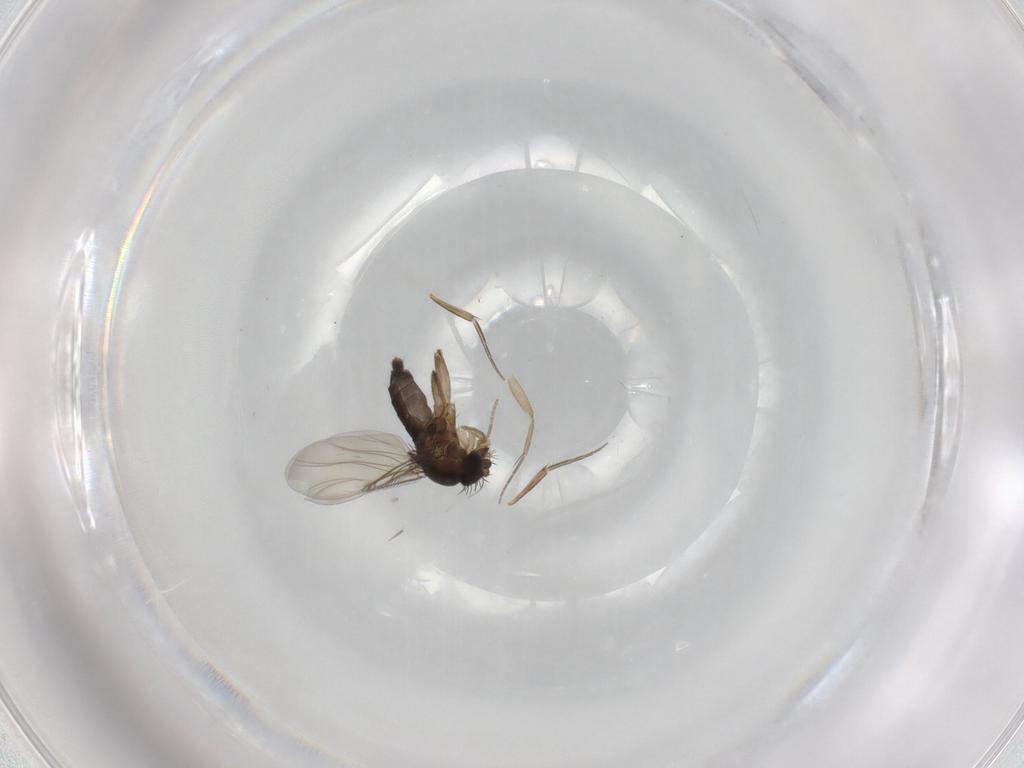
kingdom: Animalia
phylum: Arthropoda
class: Insecta
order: Diptera
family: Phoridae
